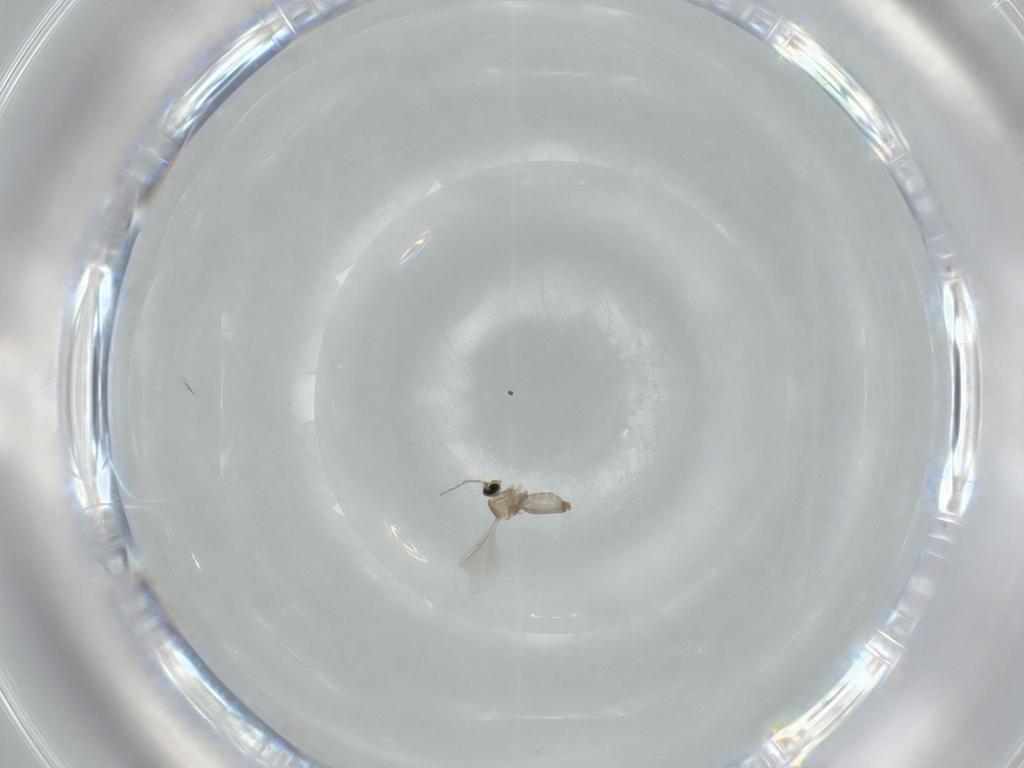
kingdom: Animalia
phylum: Arthropoda
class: Insecta
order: Diptera
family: Cecidomyiidae
